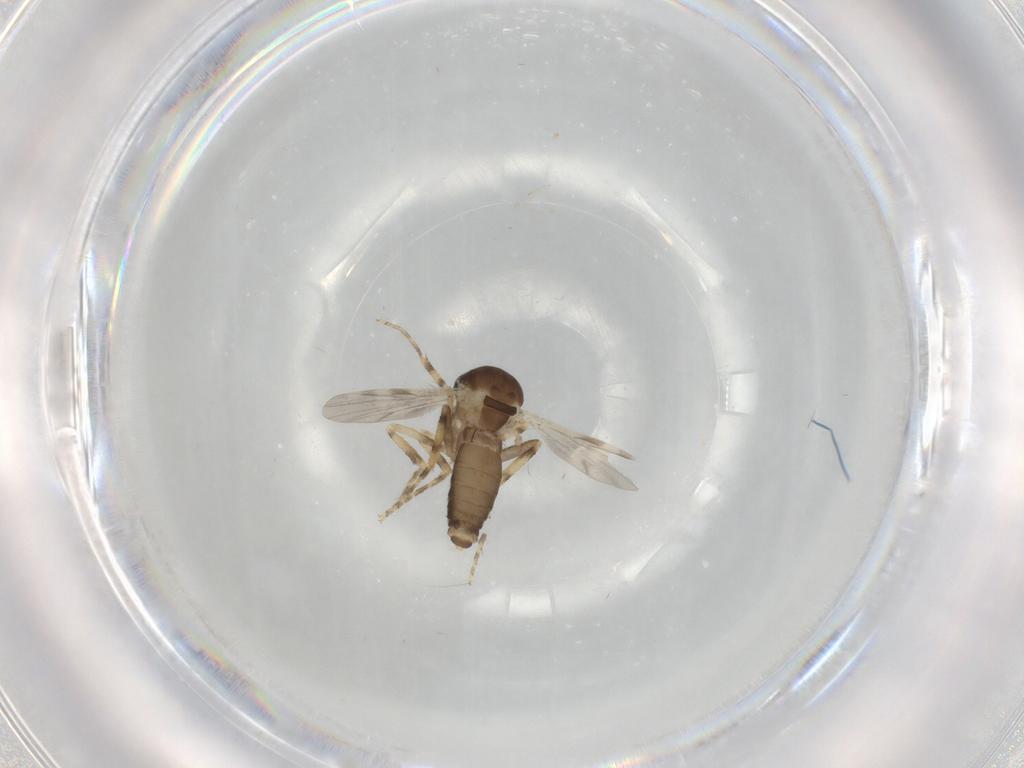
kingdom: Animalia
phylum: Arthropoda
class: Insecta
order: Diptera
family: Ceratopogonidae
